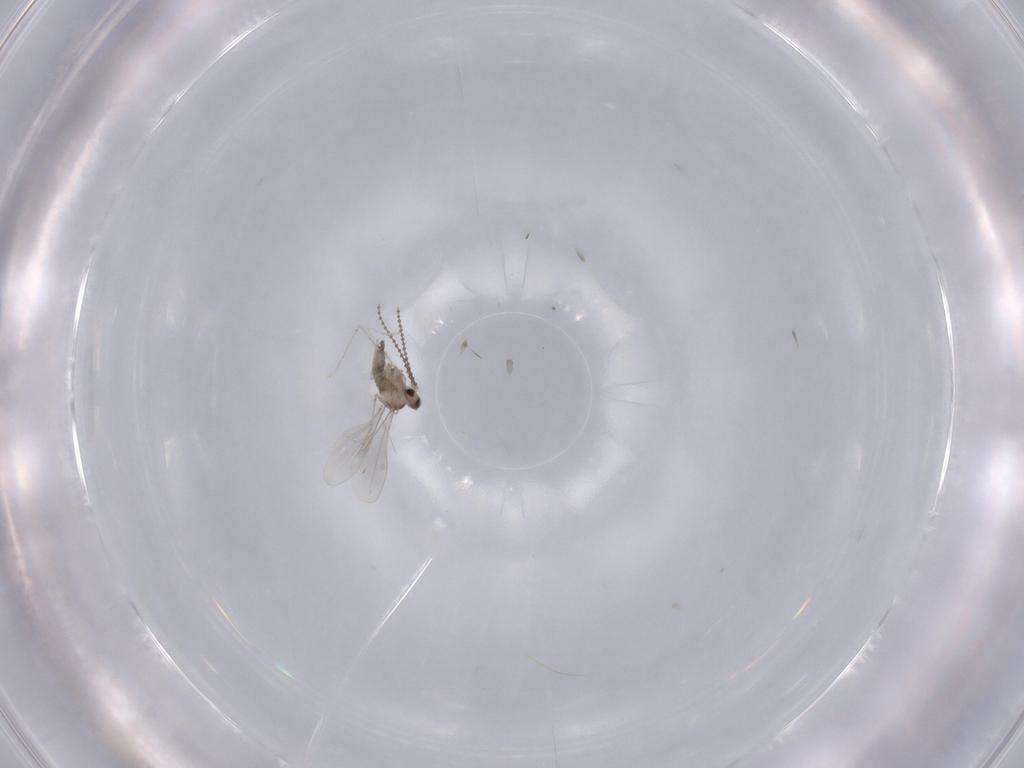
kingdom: Animalia
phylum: Arthropoda
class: Insecta
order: Diptera
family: Cecidomyiidae
